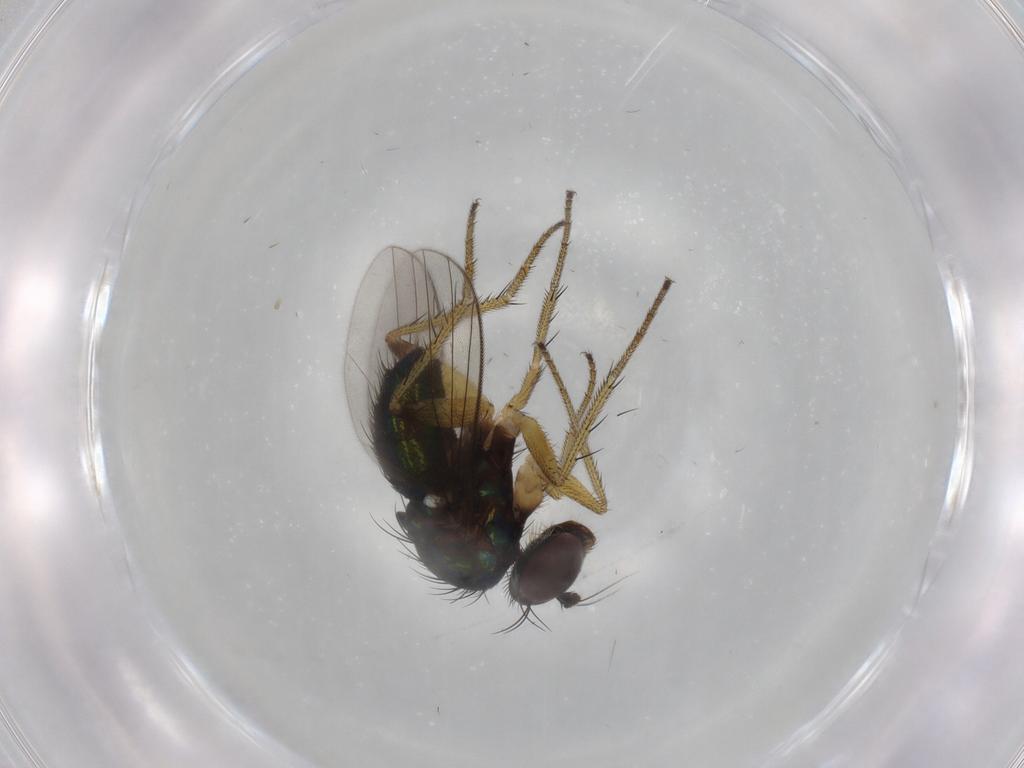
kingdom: Animalia
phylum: Arthropoda
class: Insecta
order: Diptera
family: Dolichopodidae
